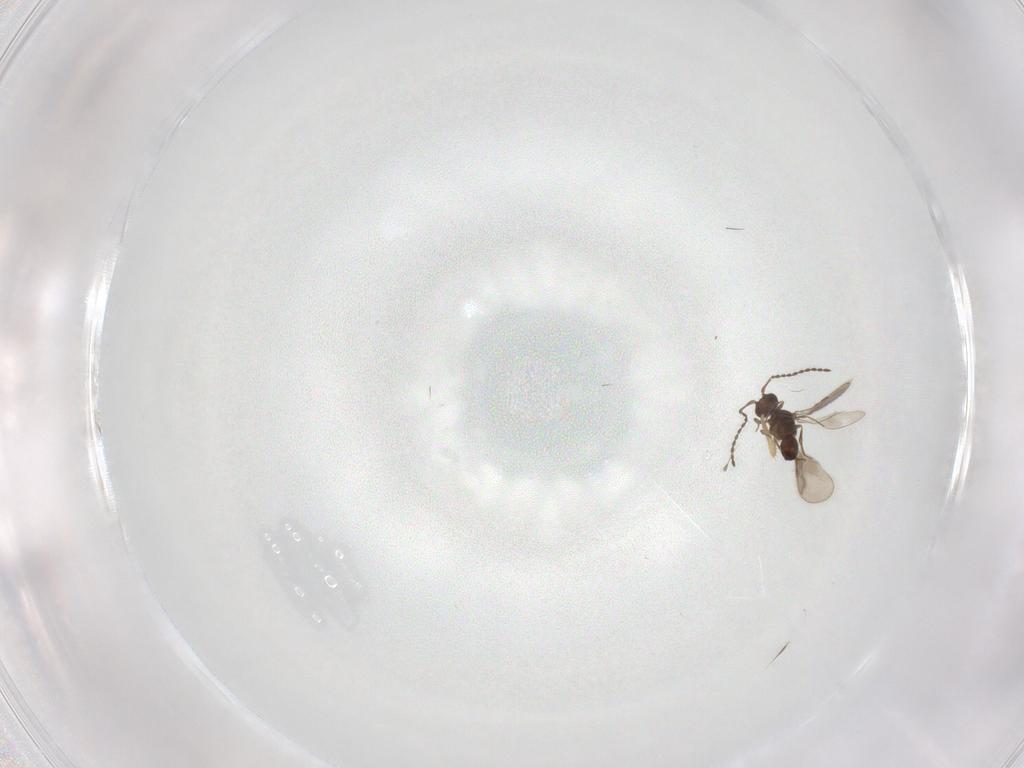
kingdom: Animalia
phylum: Arthropoda
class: Insecta
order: Hymenoptera
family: Ceraphronidae
